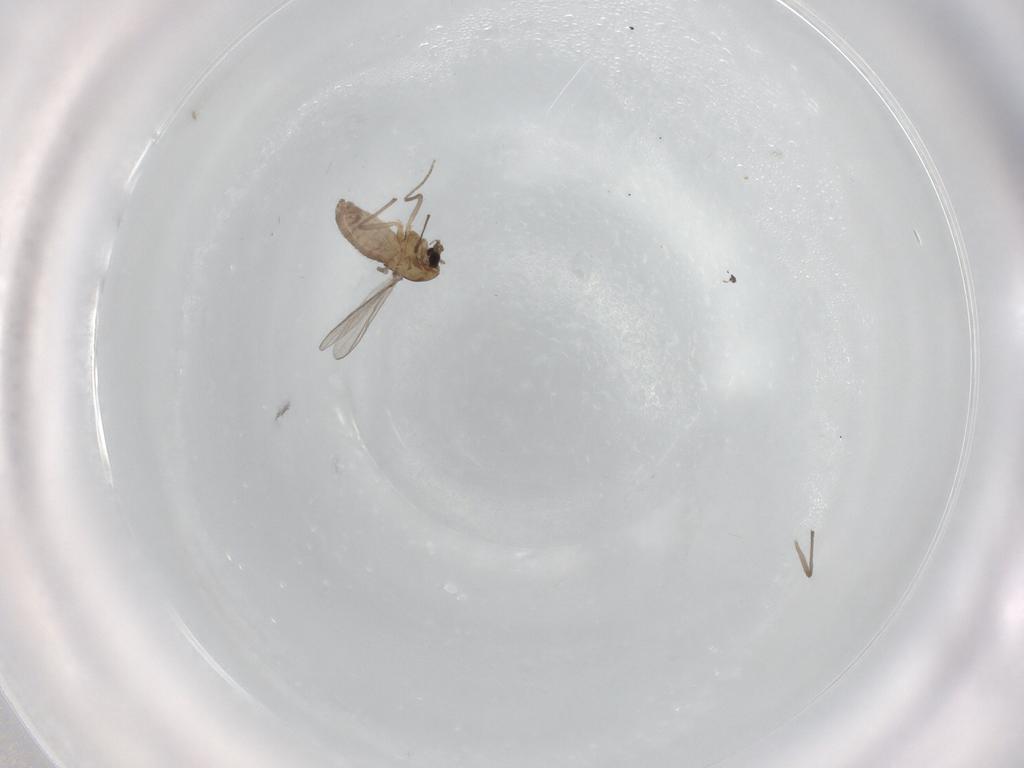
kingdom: Animalia
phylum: Arthropoda
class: Insecta
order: Diptera
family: Chironomidae
